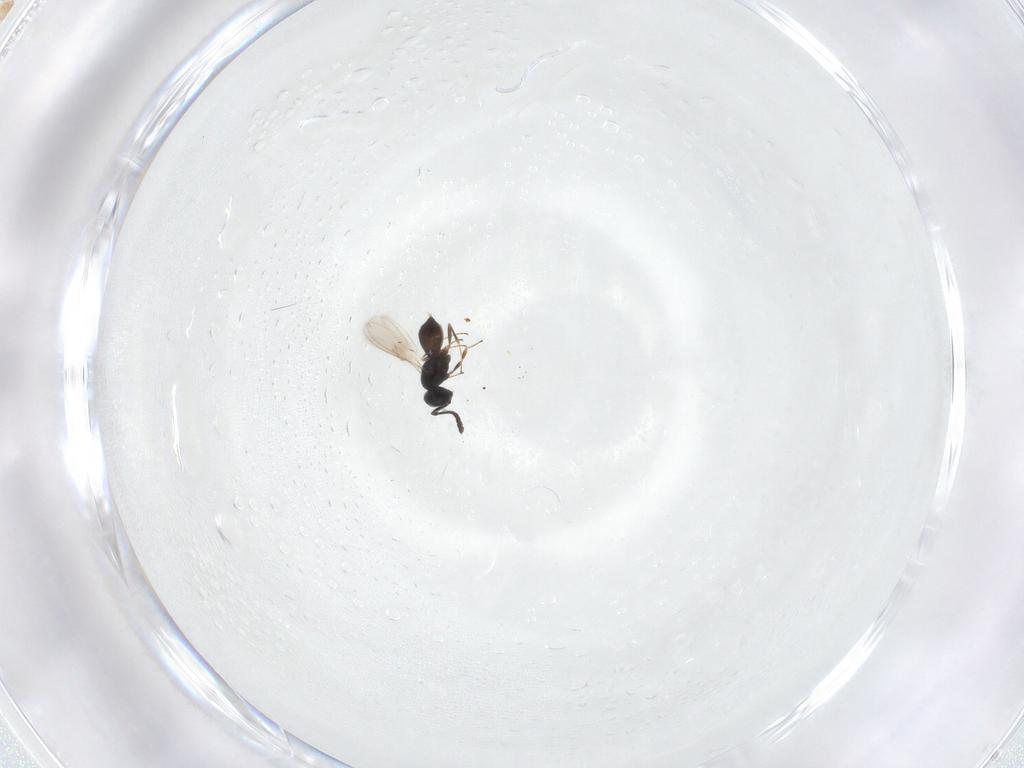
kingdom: Animalia
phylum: Arthropoda
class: Insecta
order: Hymenoptera
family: Scelionidae
